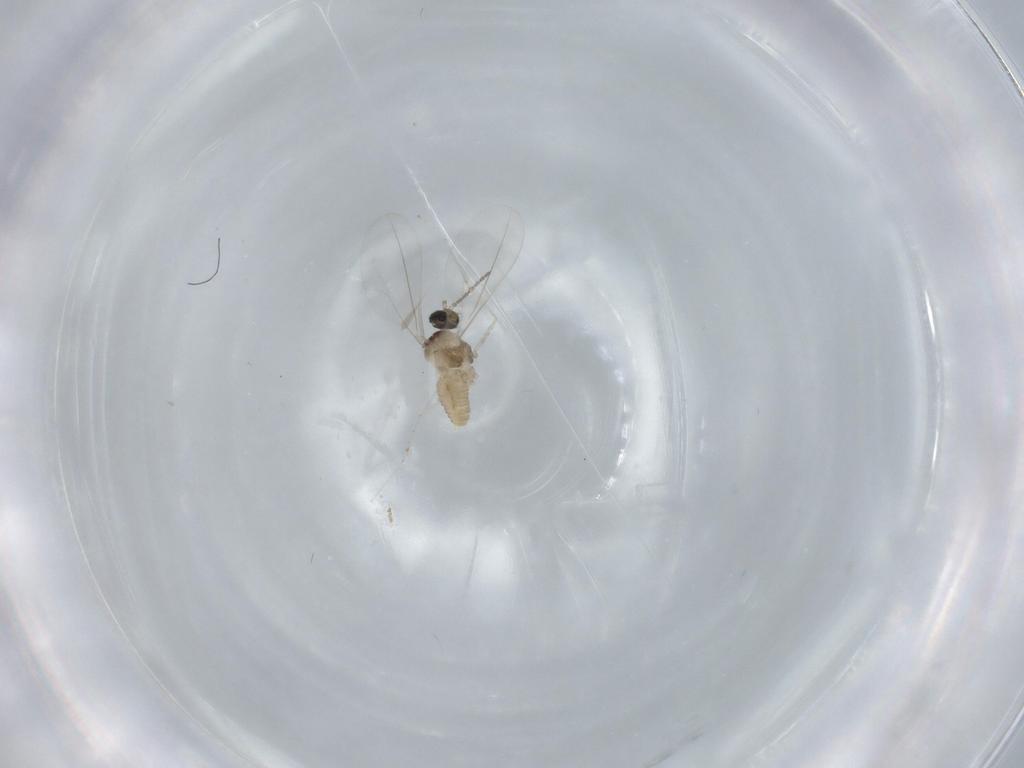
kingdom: Animalia
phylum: Arthropoda
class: Insecta
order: Diptera
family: Cecidomyiidae
